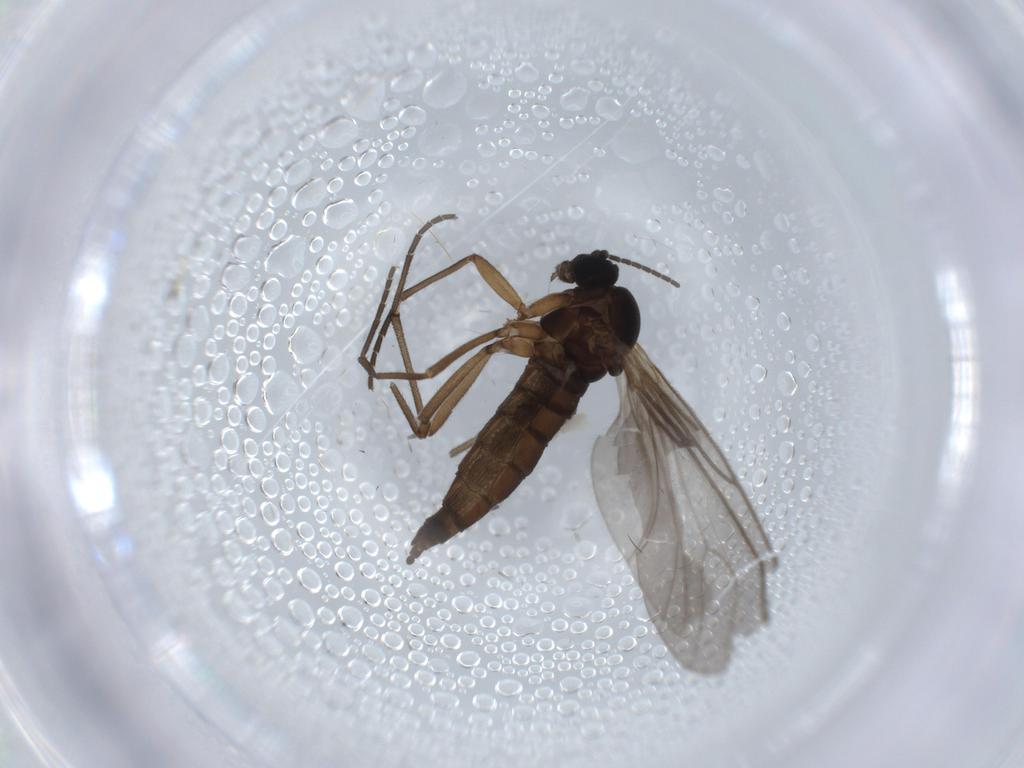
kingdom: Animalia
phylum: Arthropoda
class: Insecta
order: Diptera
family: Sciaridae
